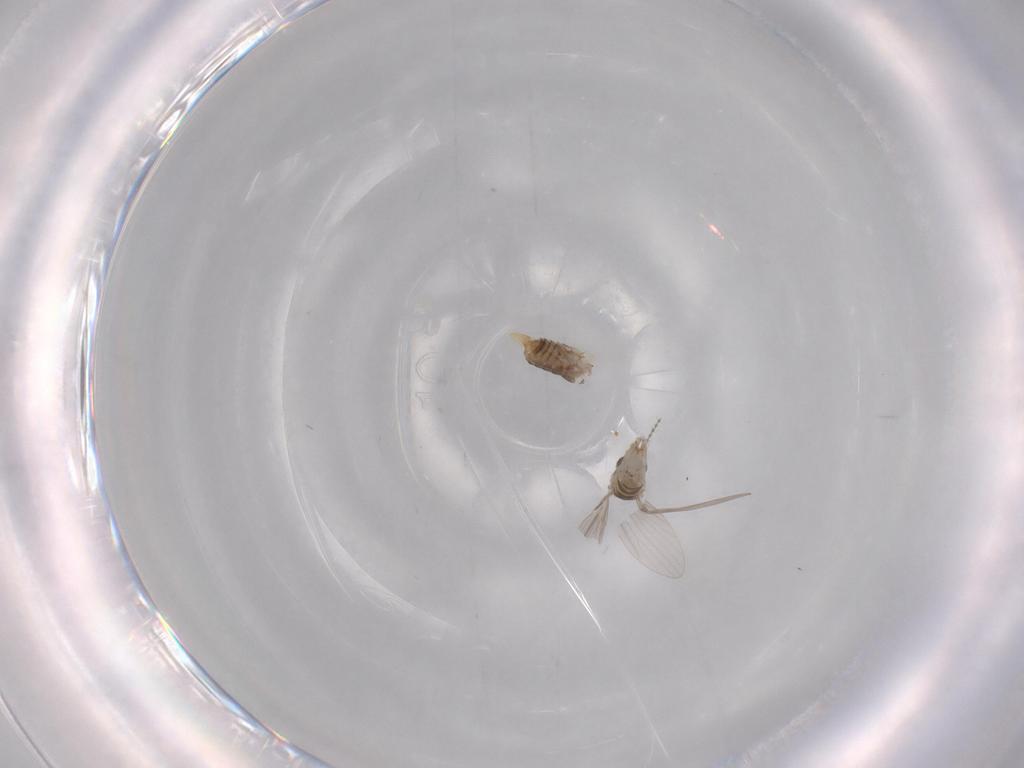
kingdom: Animalia
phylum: Arthropoda
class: Insecta
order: Diptera
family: Psychodidae
